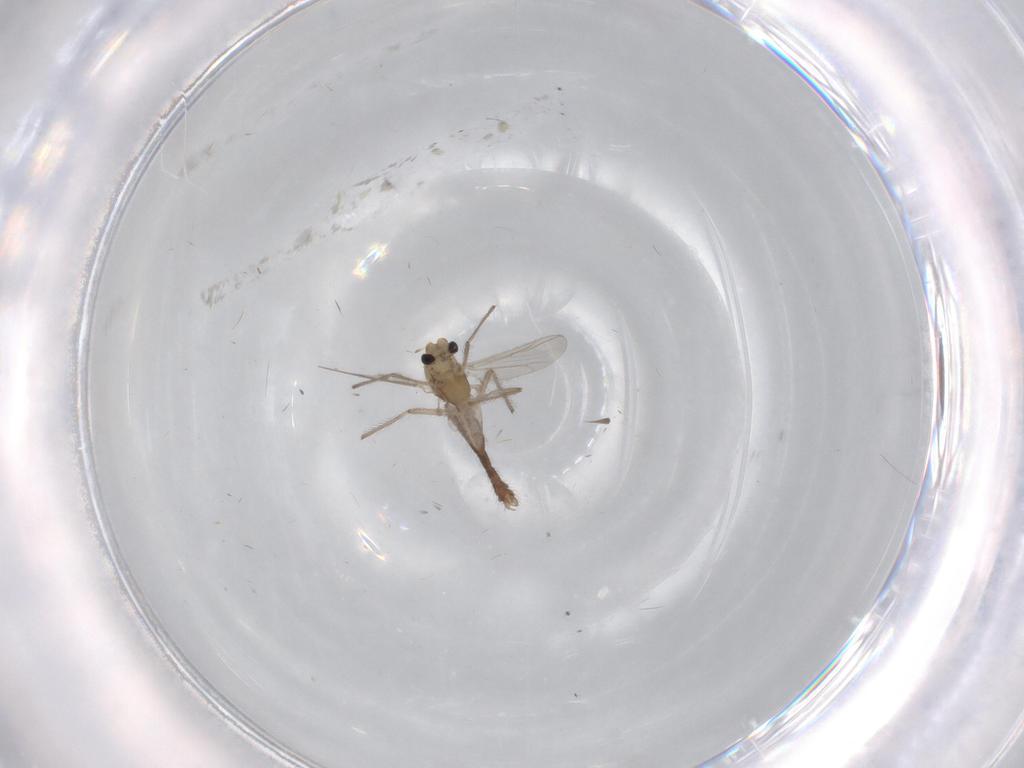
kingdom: Animalia
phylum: Arthropoda
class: Insecta
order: Diptera
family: Chironomidae
